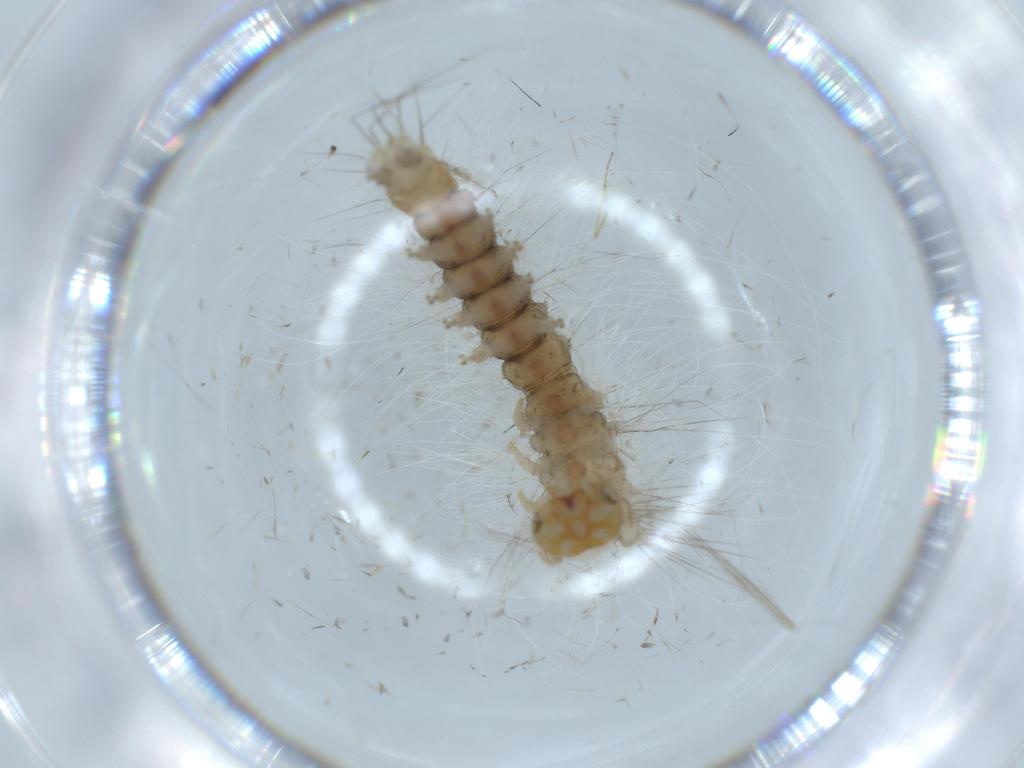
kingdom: Animalia
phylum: Arthropoda
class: Insecta
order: Lepidoptera
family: Apatelodidae
